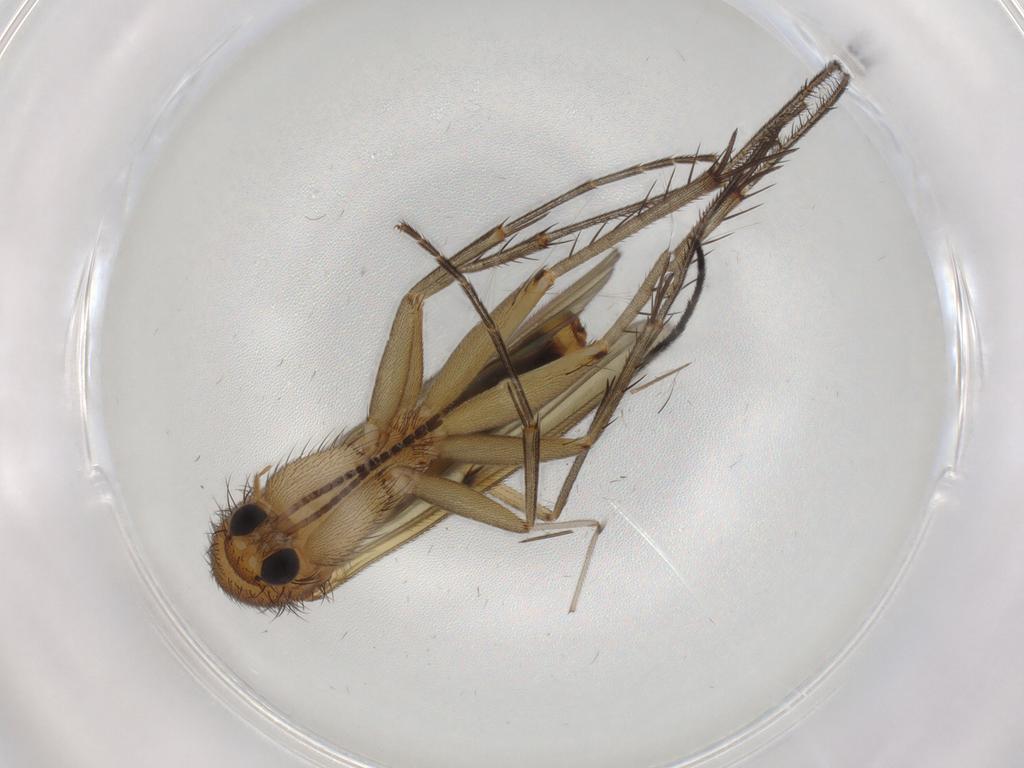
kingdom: Animalia
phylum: Arthropoda
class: Insecta
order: Diptera
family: Mycetophilidae
